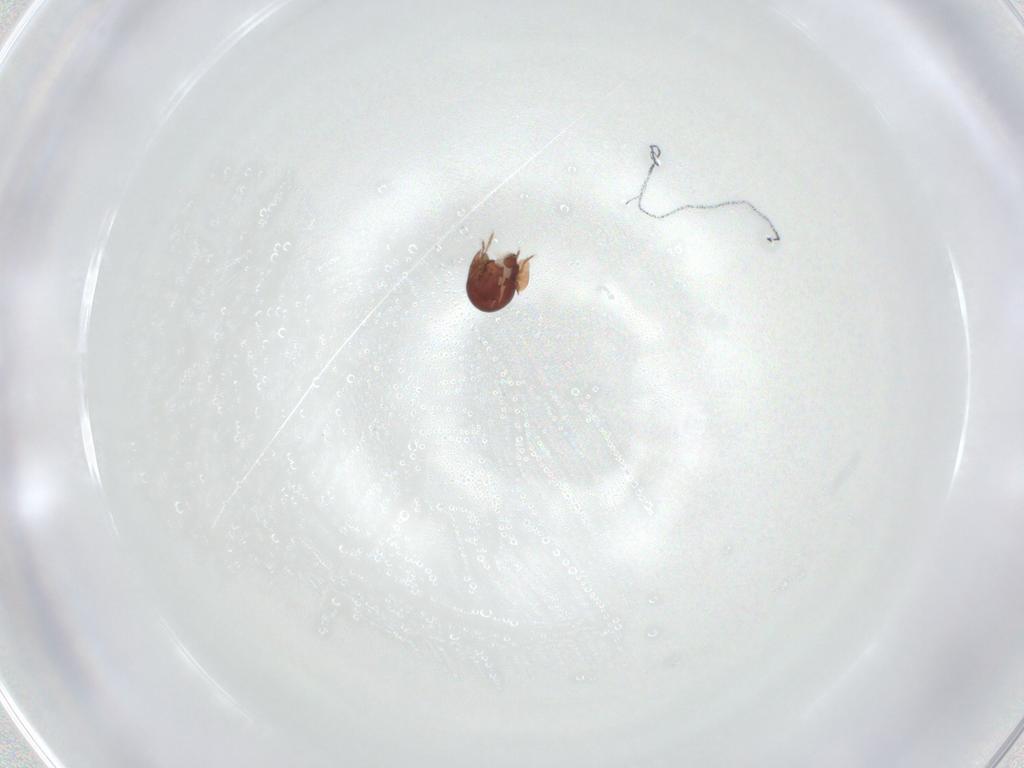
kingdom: Animalia
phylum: Arthropoda
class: Arachnida
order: Sarcoptiformes
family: Galumnidae
